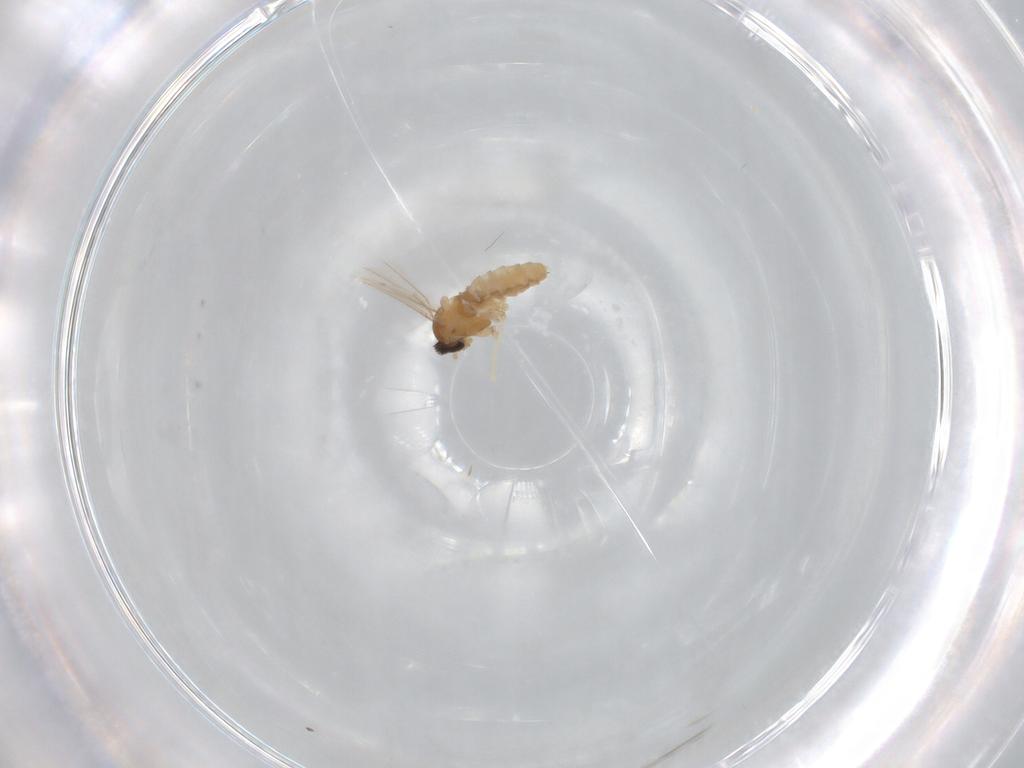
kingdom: Animalia
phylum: Arthropoda
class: Insecta
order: Diptera
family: Cecidomyiidae
